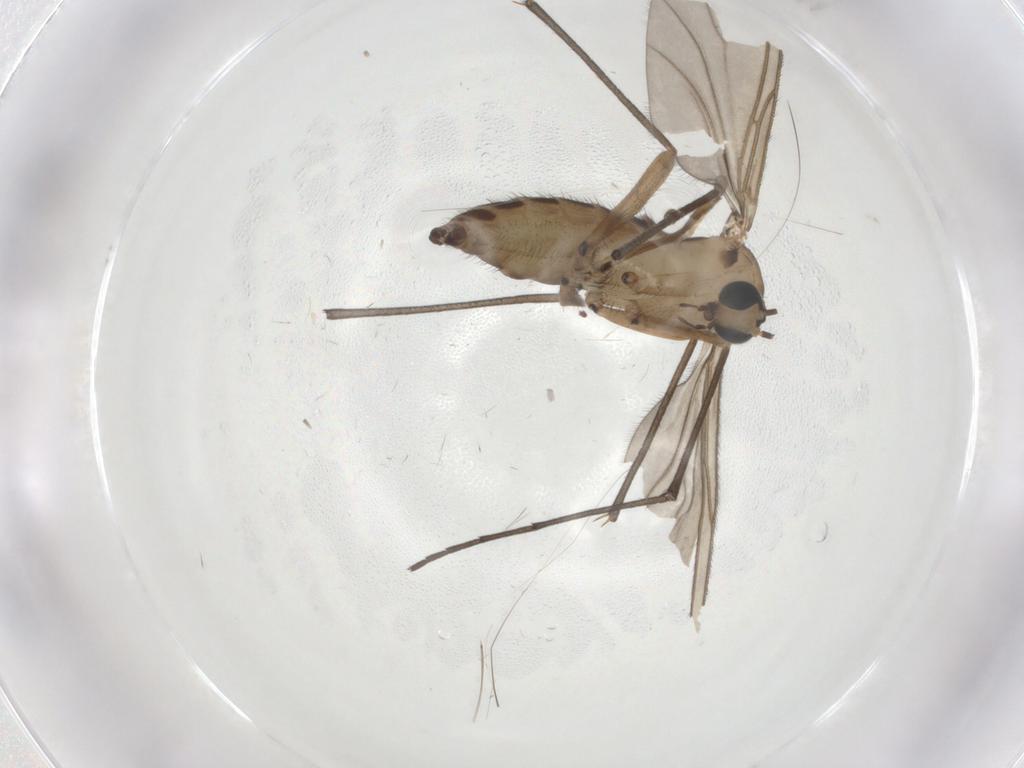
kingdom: Animalia
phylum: Arthropoda
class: Insecta
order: Diptera
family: Sciaridae
